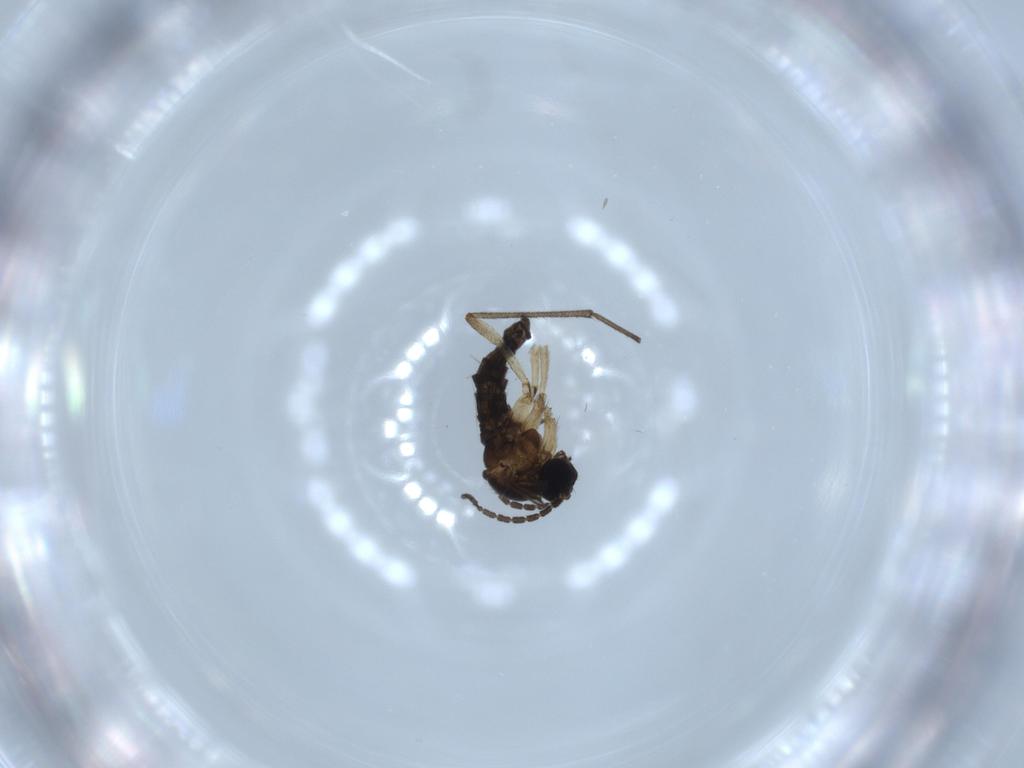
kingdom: Animalia
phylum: Arthropoda
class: Insecta
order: Diptera
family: Sciaridae
